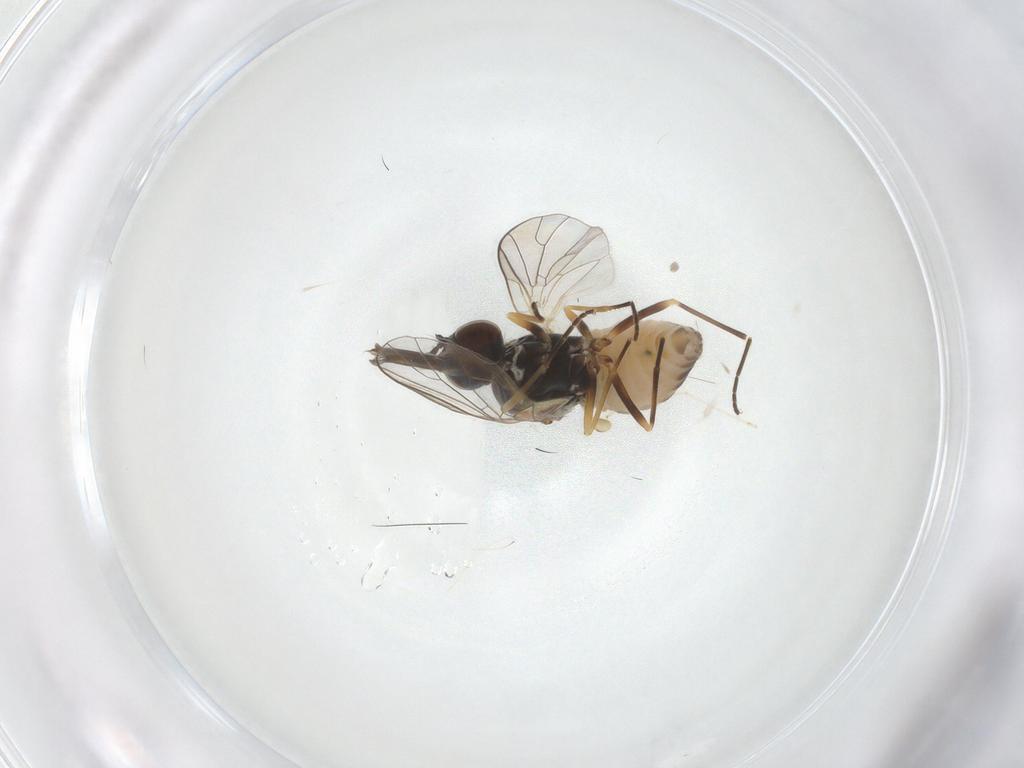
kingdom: Animalia
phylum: Arthropoda
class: Insecta
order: Diptera
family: Bombyliidae
